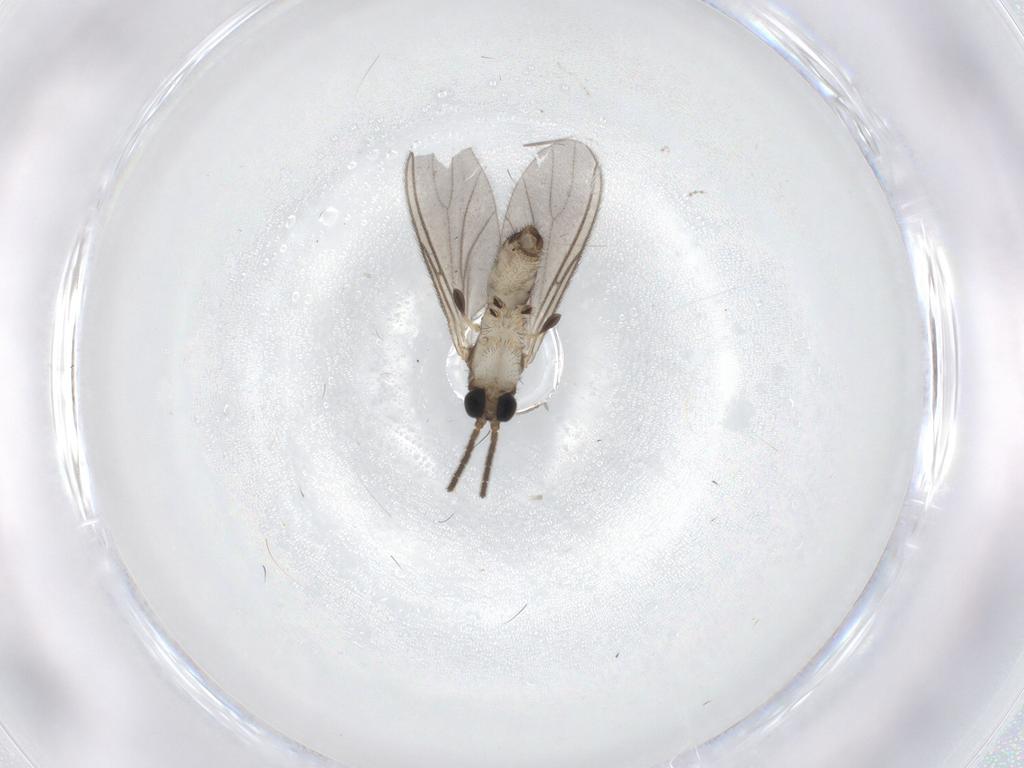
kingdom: Animalia
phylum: Arthropoda
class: Insecta
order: Diptera
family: Sciaridae
